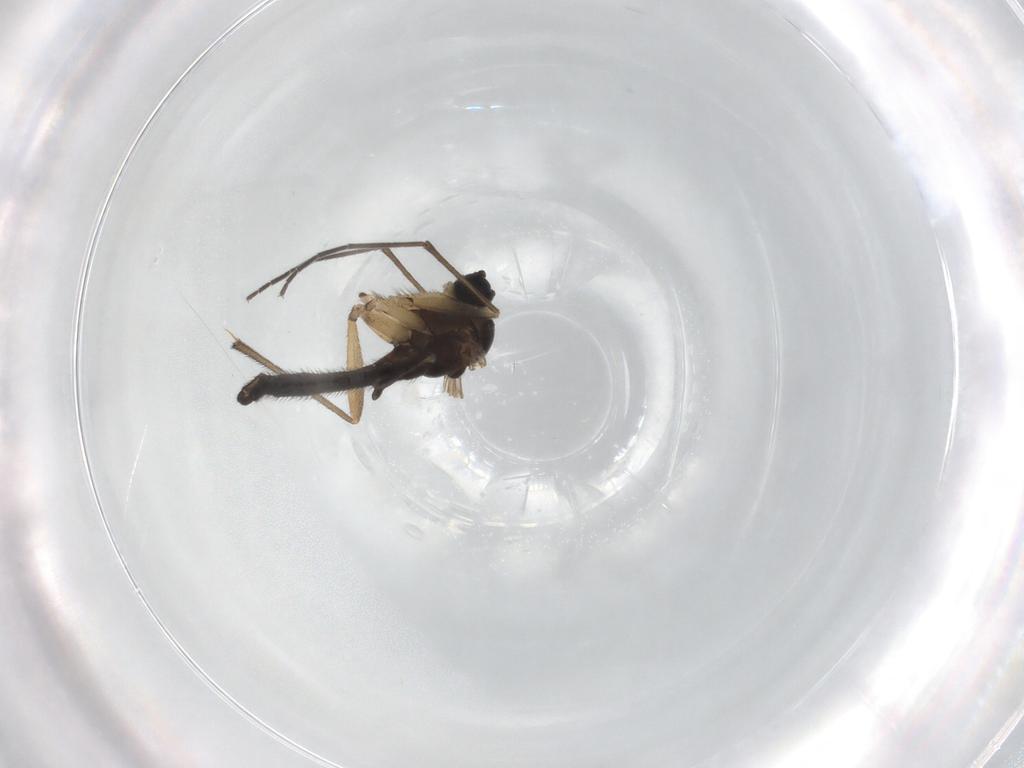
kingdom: Animalia
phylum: Arthropoda
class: Insecta
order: Diptera
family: Sciaridae
